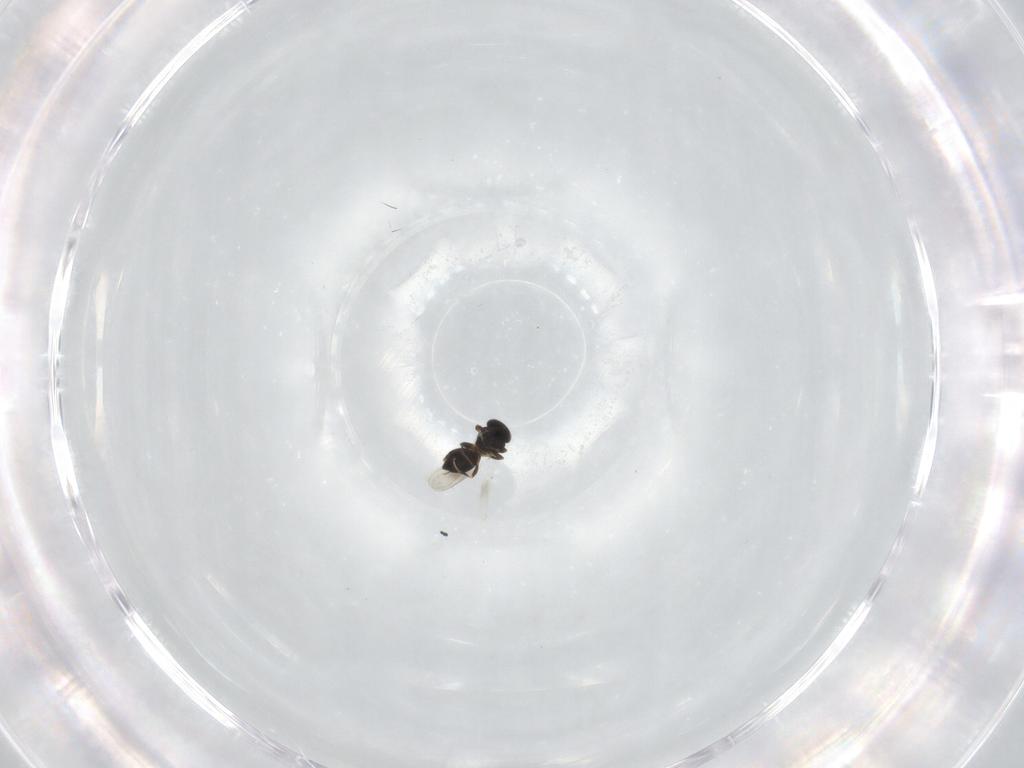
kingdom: Animalia
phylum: Arthropoda
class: Insecta
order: Hymenoptera
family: Platygastridae
